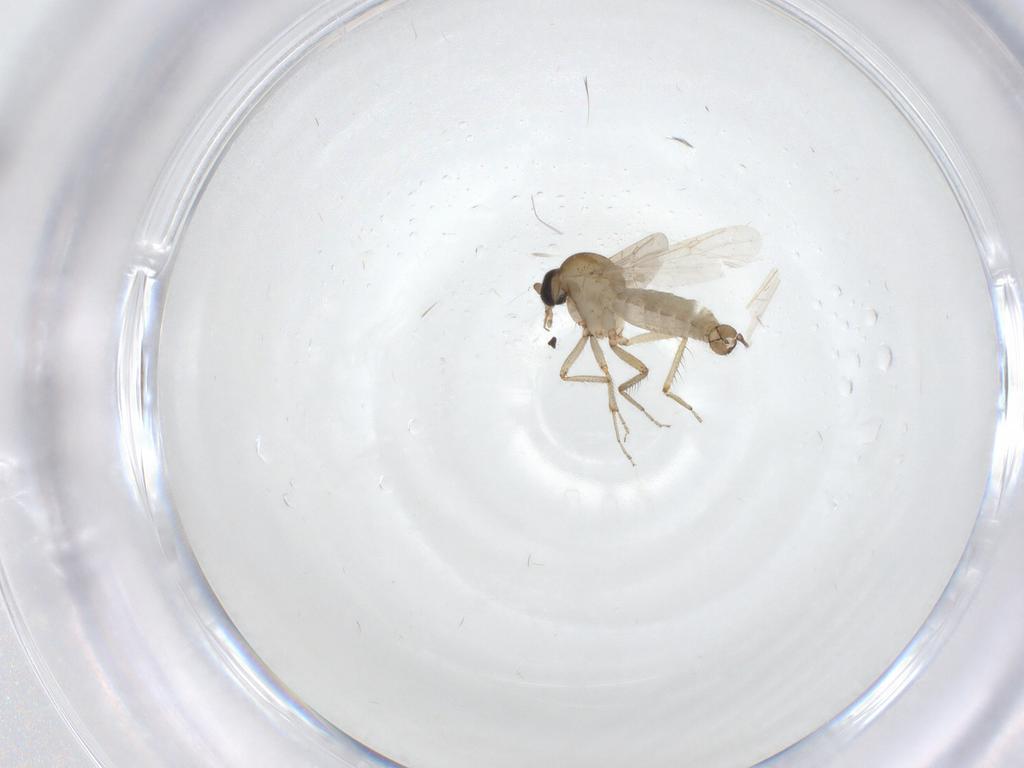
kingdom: Animalia
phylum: Arthropoda
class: Insecta
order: Diptera
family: Ceratopogonidae
